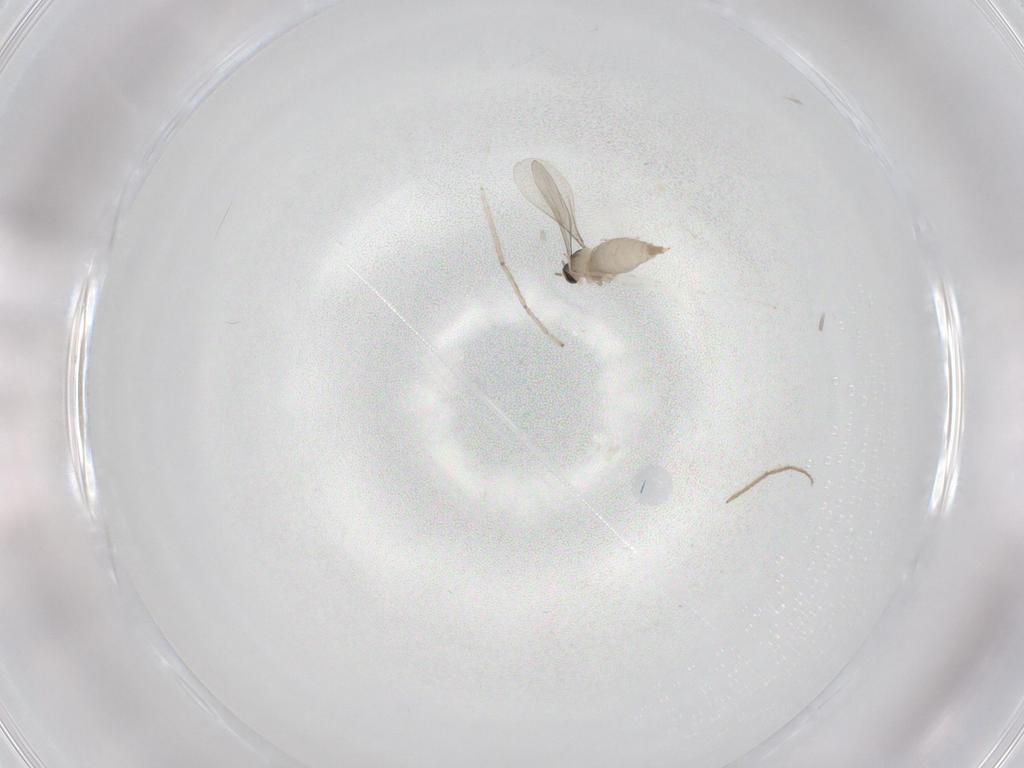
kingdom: Animalia
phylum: Arthropoda
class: Insecta
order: Diptera
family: Cecidomyiidae
